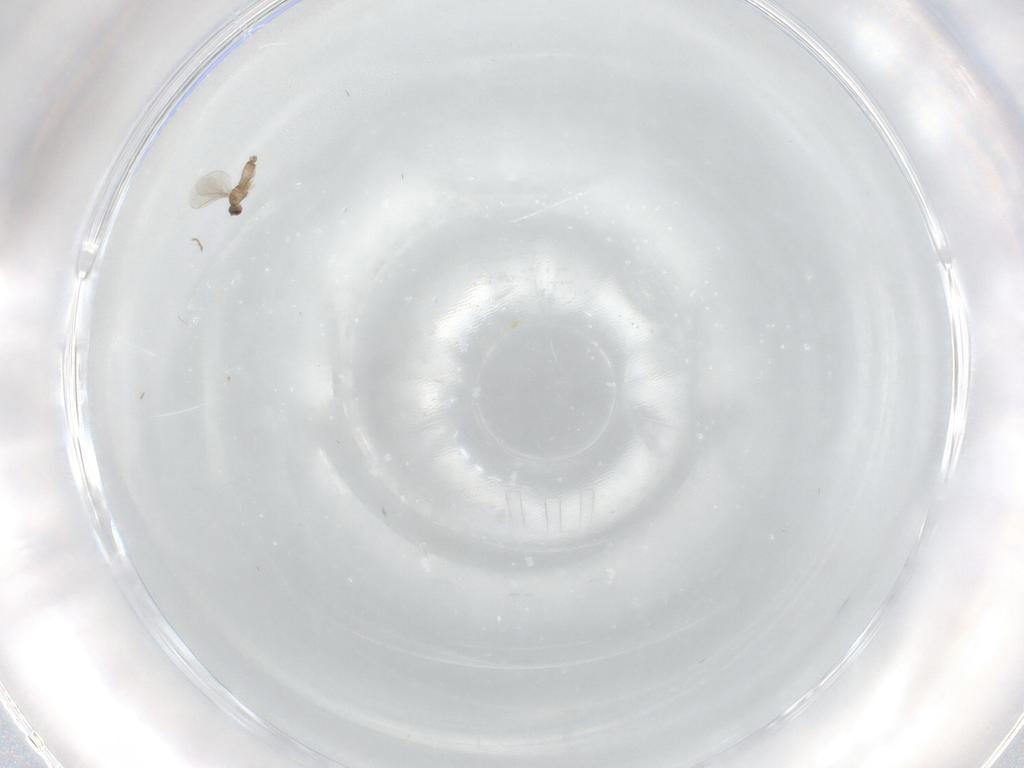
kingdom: Animalia
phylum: Arthropoda
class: Insecta
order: Diptera
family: Cecidomyiidae
